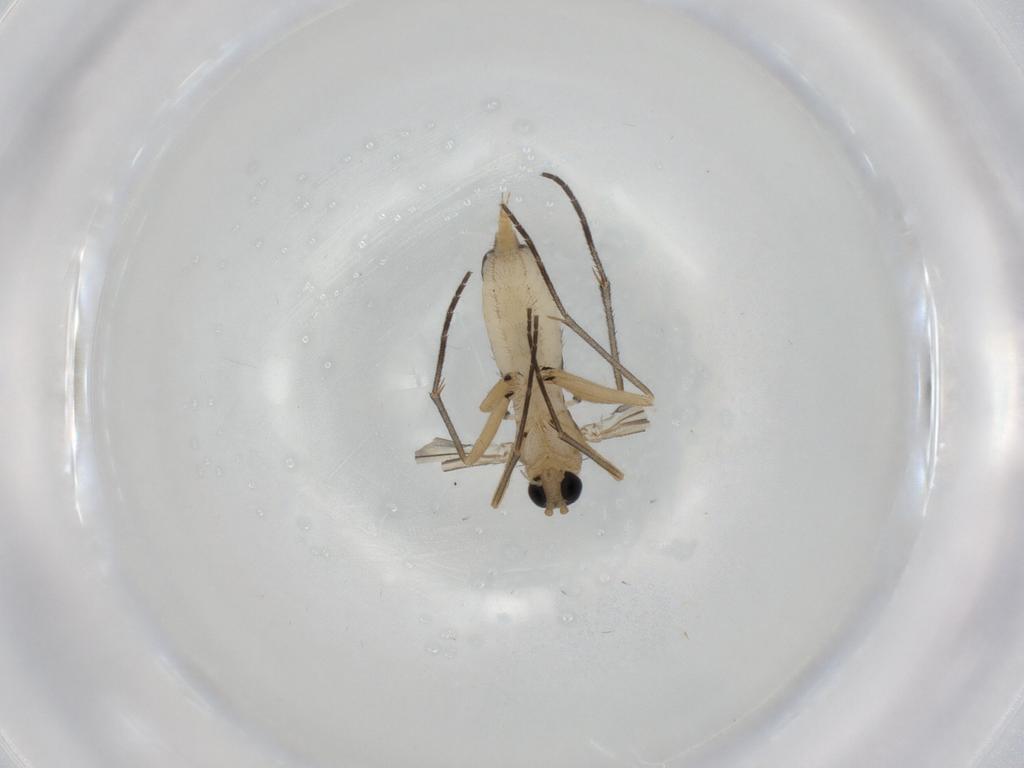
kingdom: Animalia
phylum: Arthropoda
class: Insecta
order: Diptera
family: Sciaridae
